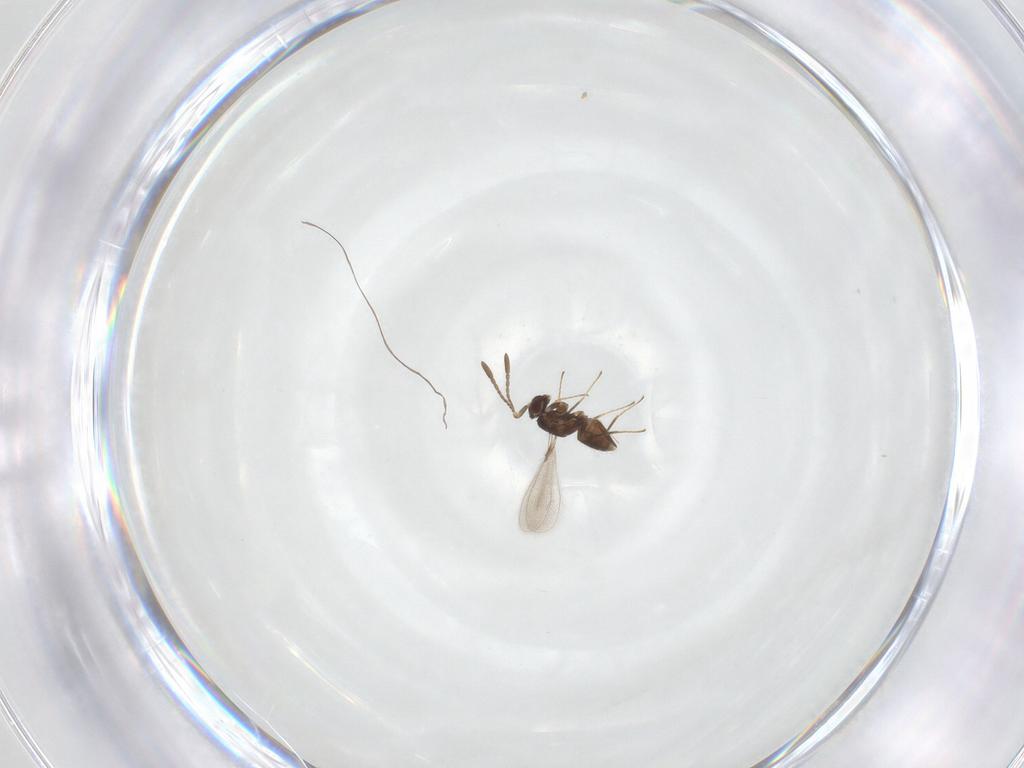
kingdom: Animalia
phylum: Arthropoda
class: Insecta
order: Hymenoptera
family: Mymaridae
